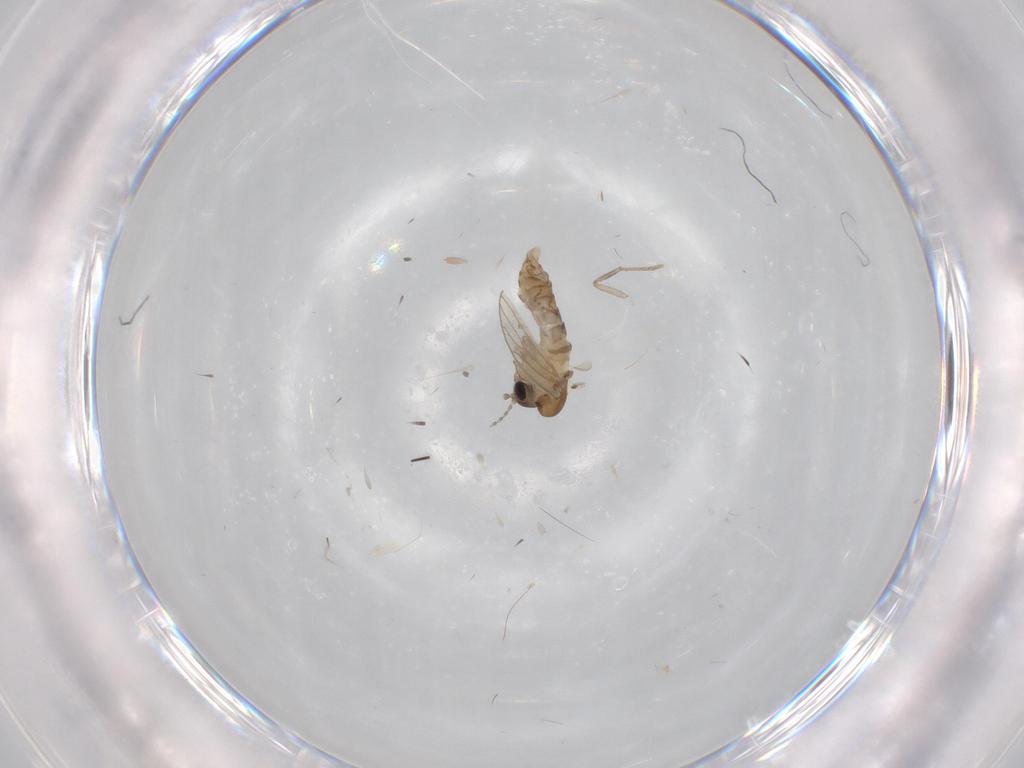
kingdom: Animalia
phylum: Arthropoda
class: Insecta
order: Diptera
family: Psychodidae
